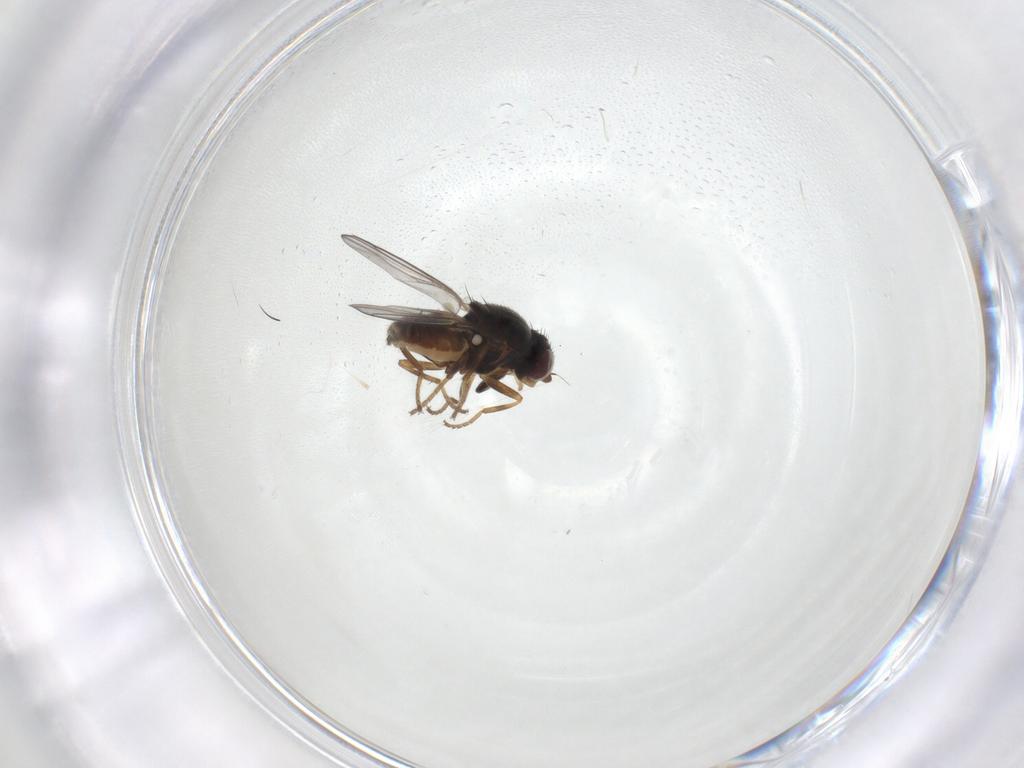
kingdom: Animalia
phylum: Arthropoda
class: Insecta
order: Diptera
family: Chloropidae
